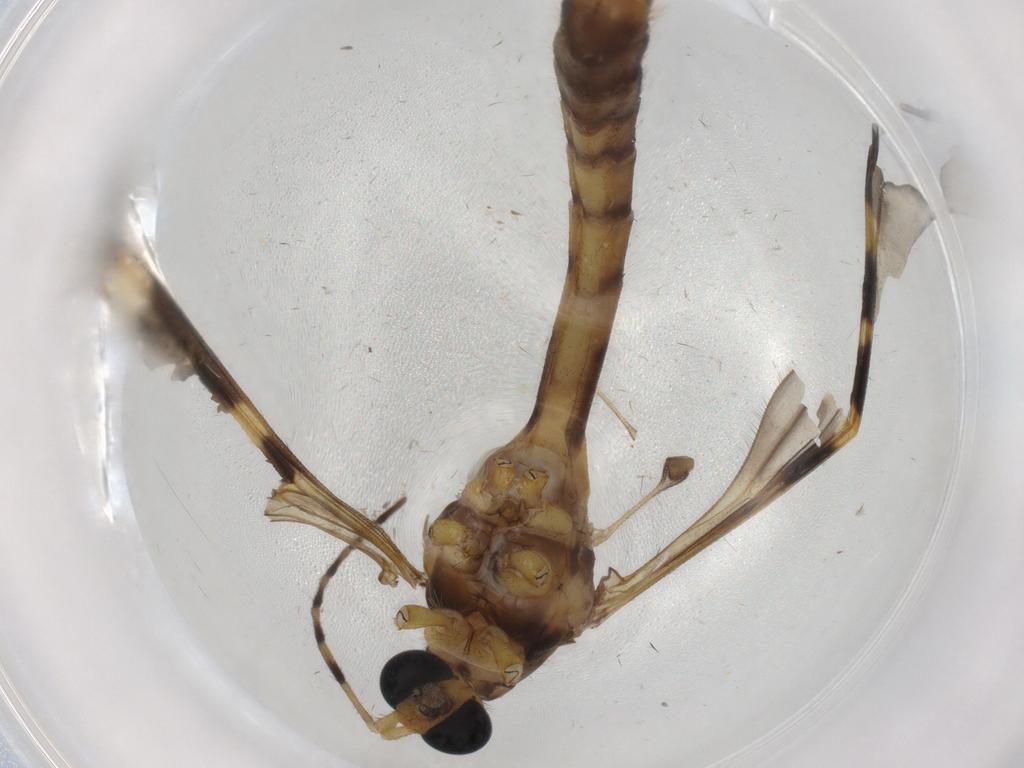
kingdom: Animalia
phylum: Arthropoda
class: Insecta
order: Diptera
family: Phoridae
